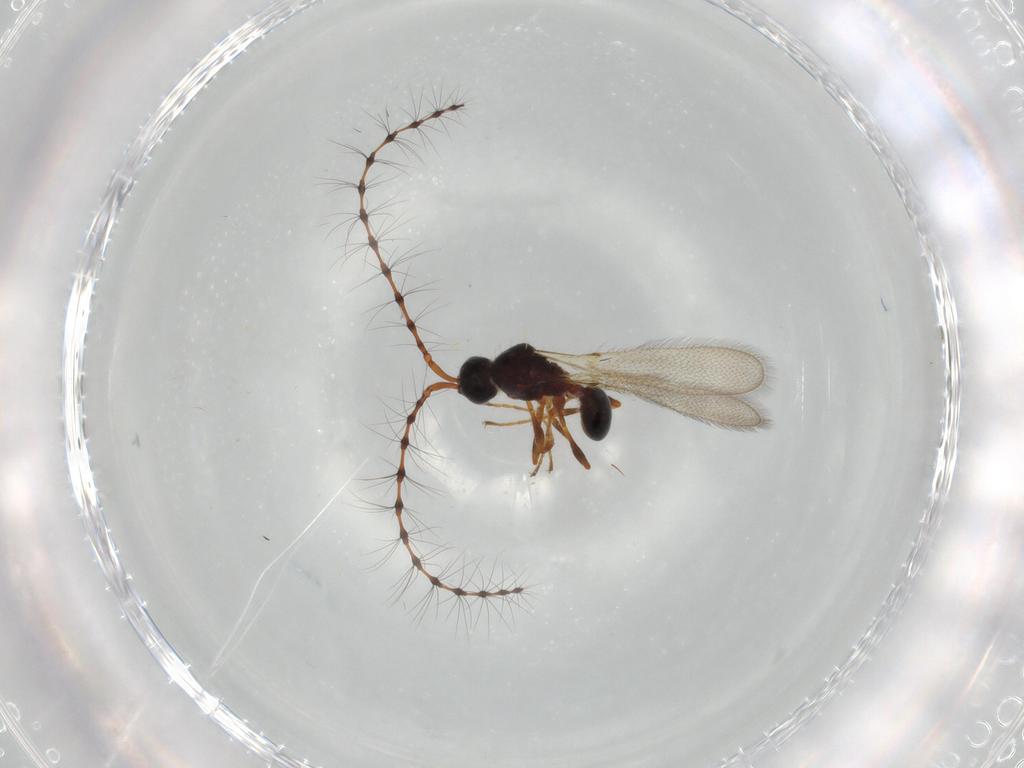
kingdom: Animalia
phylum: Arthropoda
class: Insecta
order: Hymenoptera
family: Diapriidae
